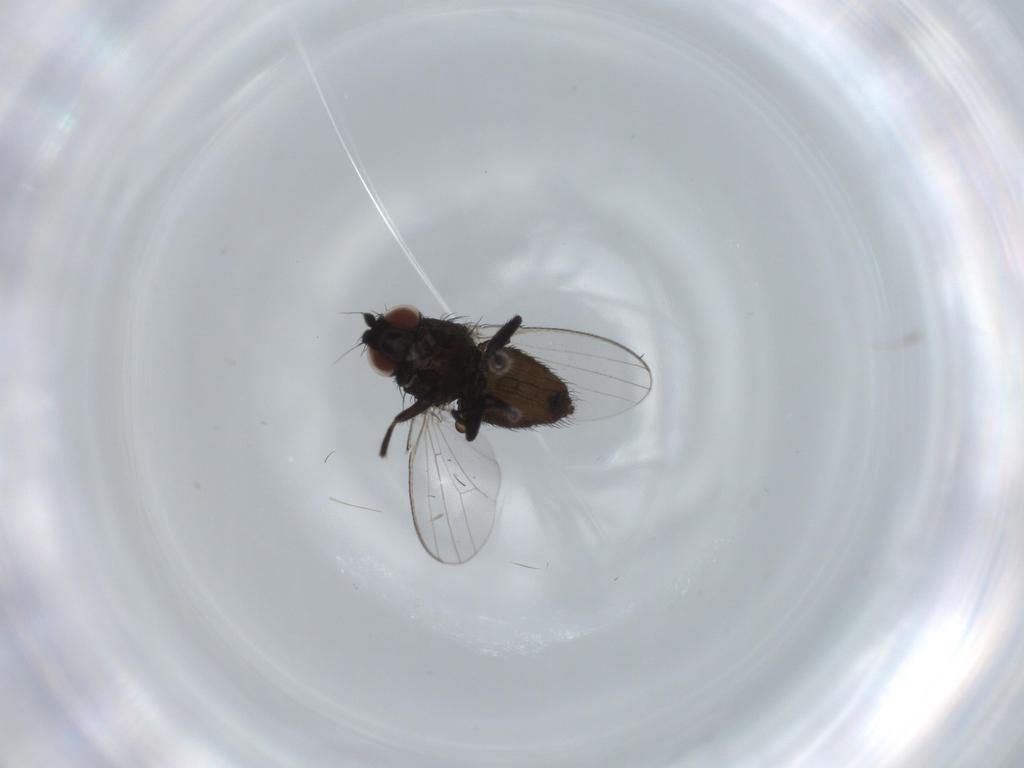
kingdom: Animalia
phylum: Arthropoda
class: Insecta
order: Diptera
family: Milichiidae
